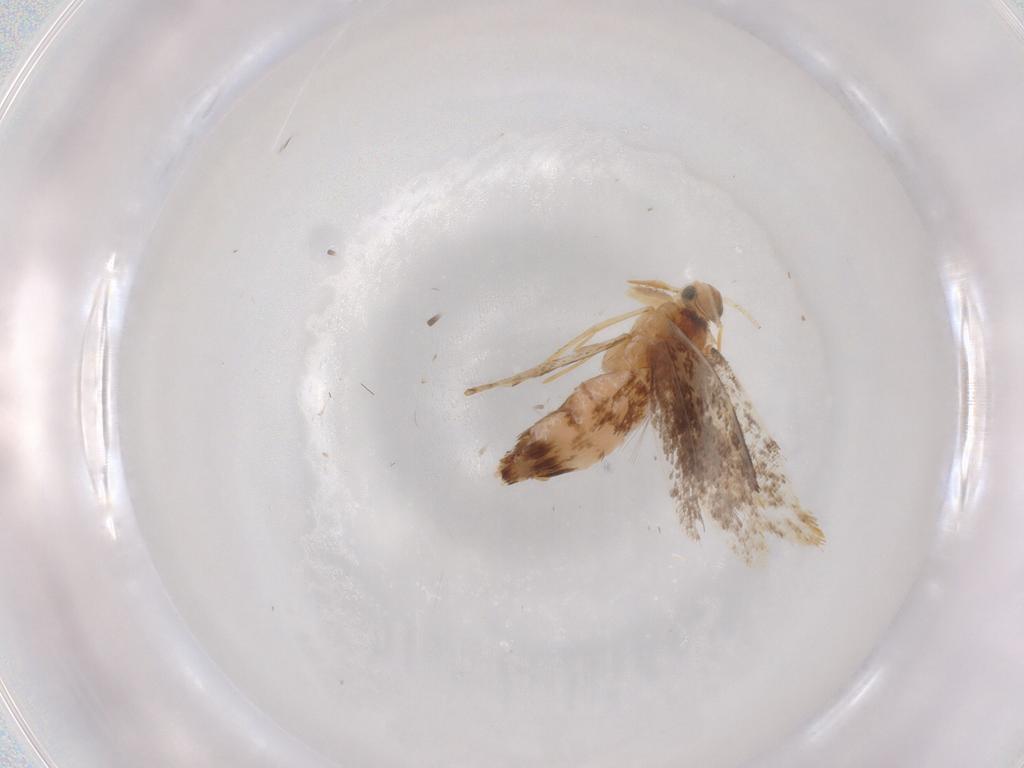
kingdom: Animalia
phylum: Arthropoda
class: Insecta
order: Lepidoptera
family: Dryadaulidae
